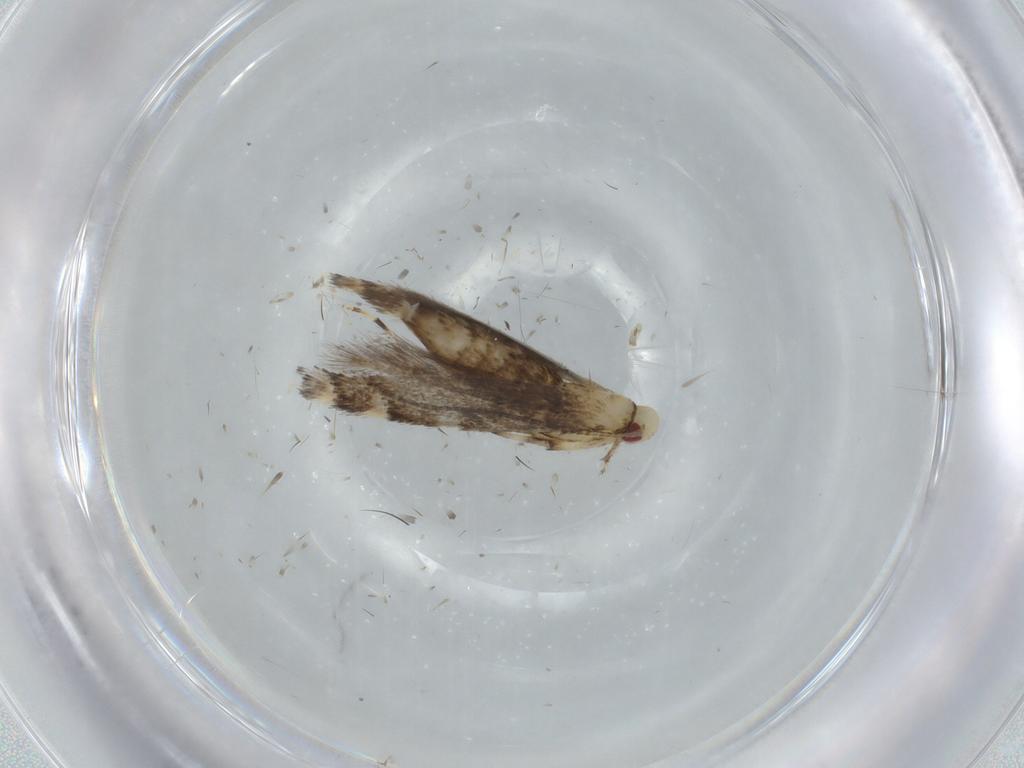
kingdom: Animalia
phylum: Arthropoda
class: Insecta
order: Lepidoptera
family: Gracillariidae
